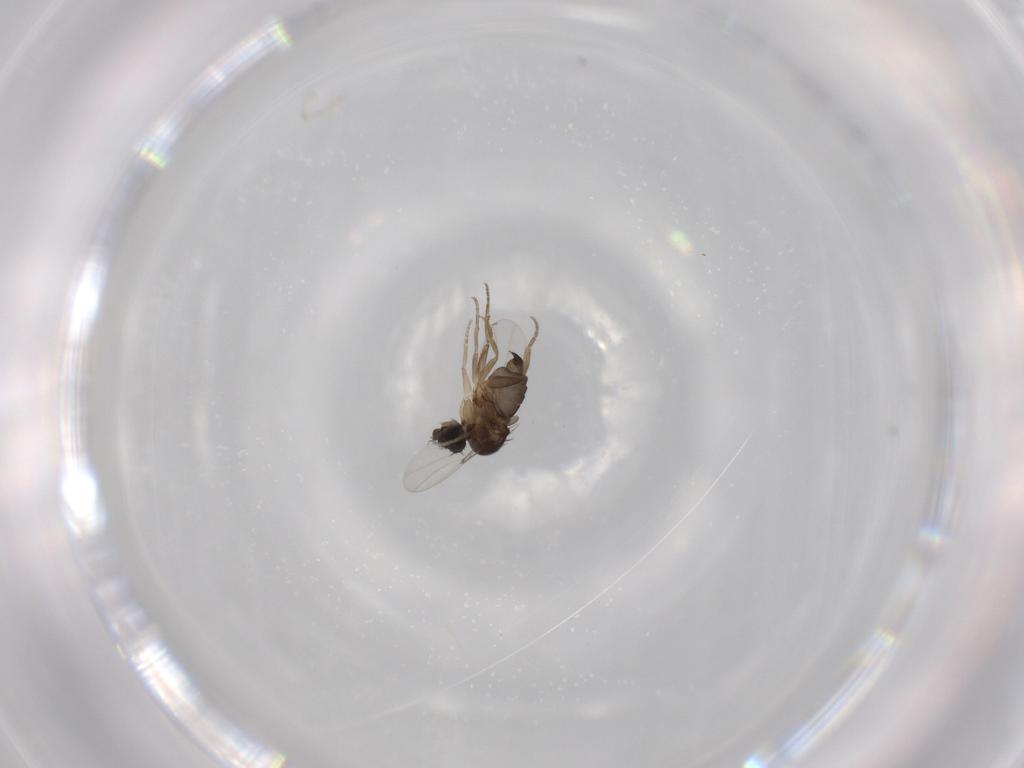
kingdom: Animalia
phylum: Arthropoda
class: Insecta
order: Diptera
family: Phoridae
